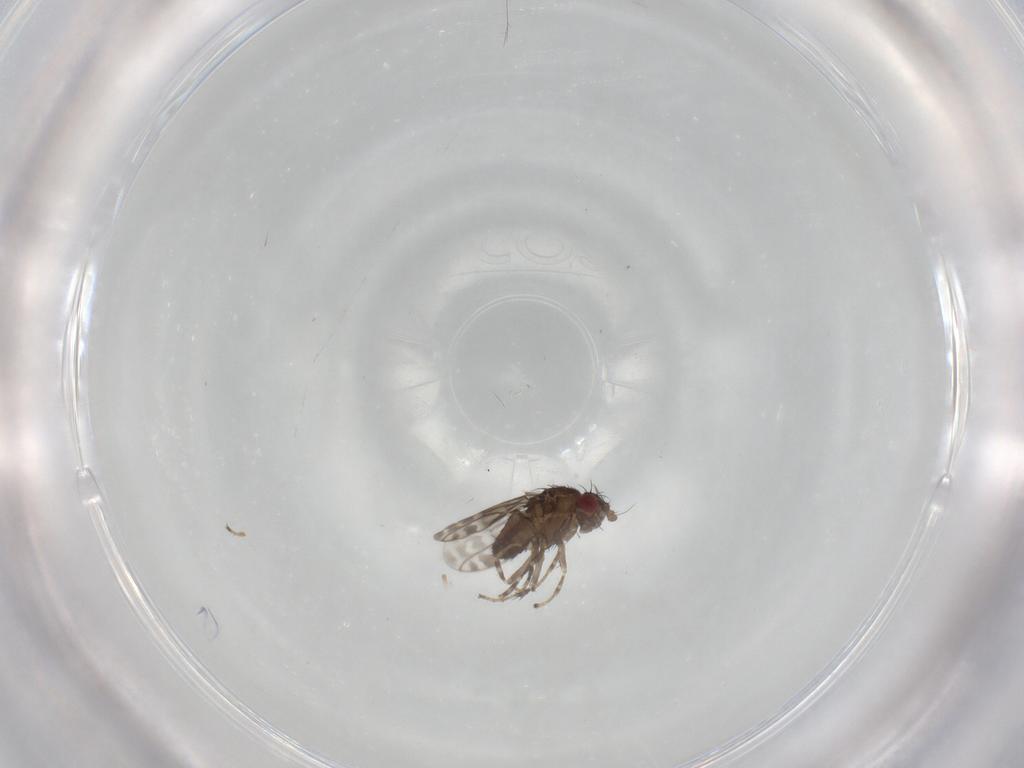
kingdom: Animalia
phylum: Arthropoda
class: Insecta
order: Diptera
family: Sphaeroceridae
